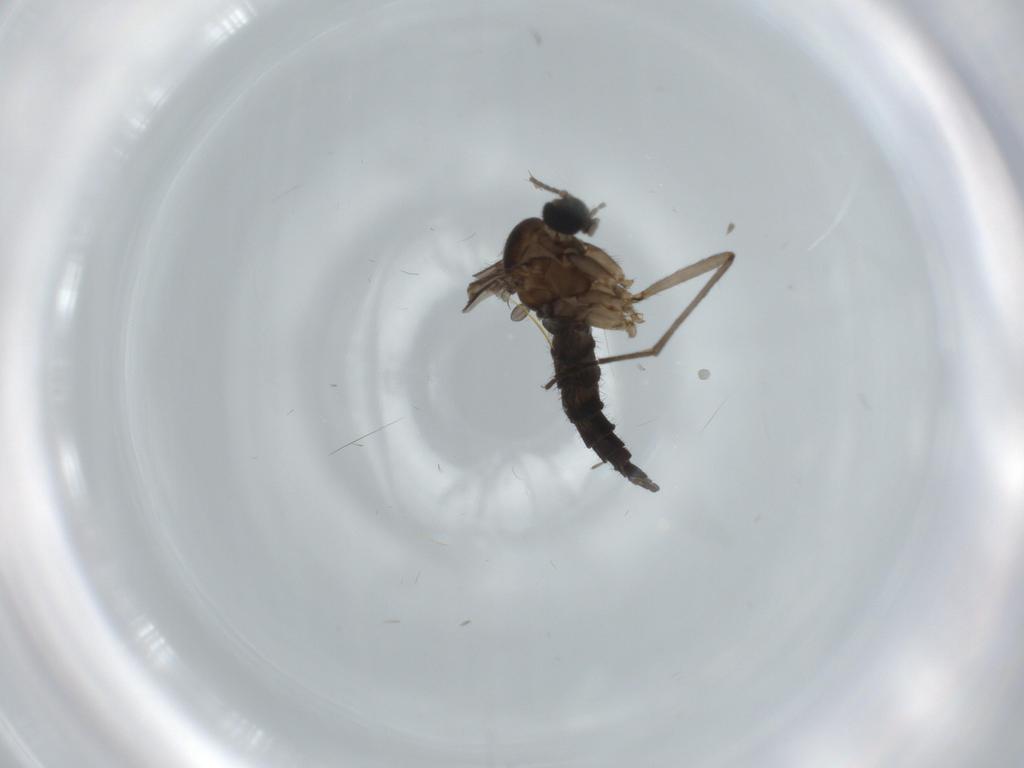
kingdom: Animalia
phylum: Arthropoda
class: Insecta
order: Diptera
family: Sciaridae
